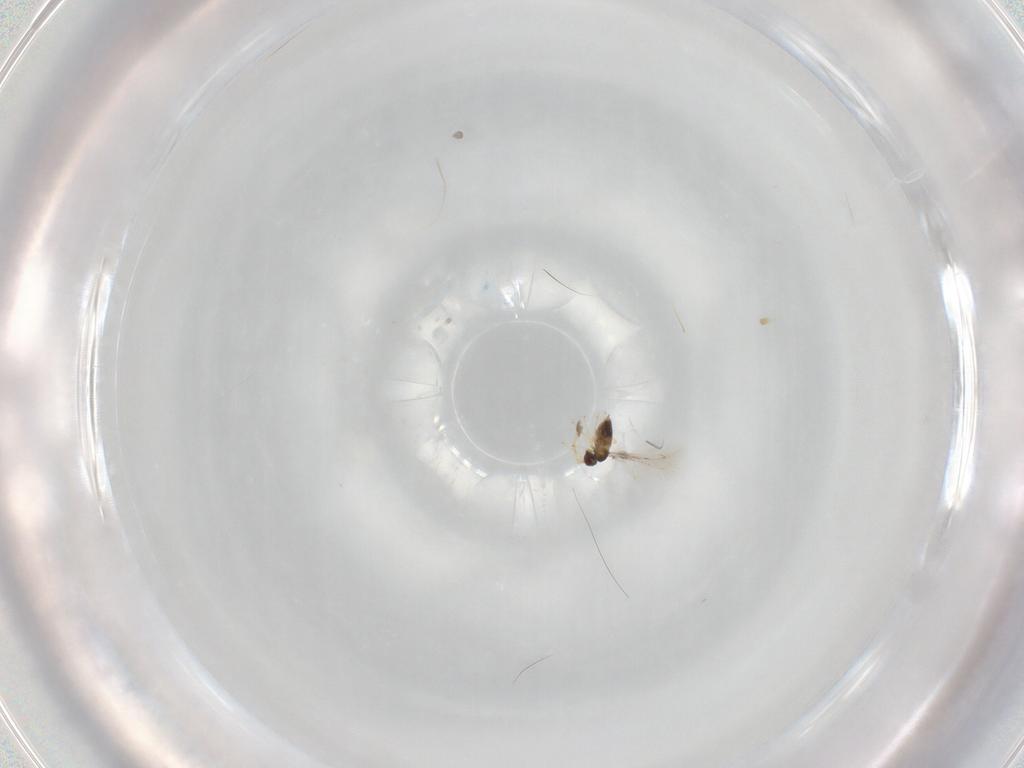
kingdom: Animalia
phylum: Arthropoda
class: Insecta
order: Hymenoptera
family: Mymaridae
